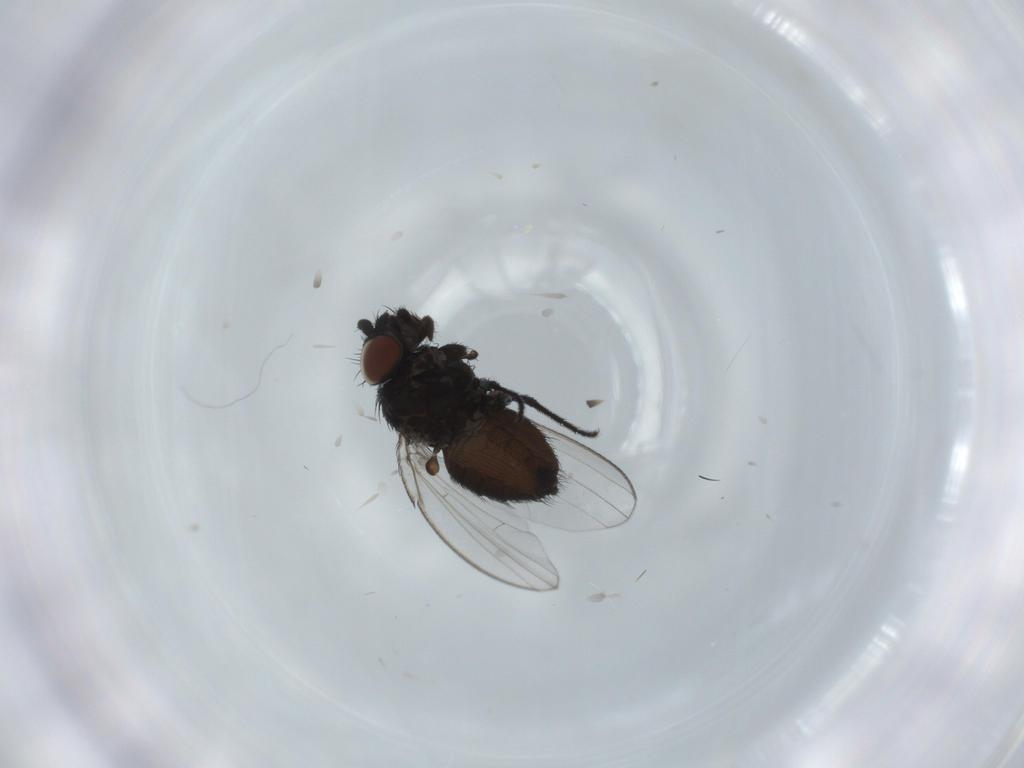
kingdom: Animalia
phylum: Arthropoda
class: Insecta
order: Diptera
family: Milichiidae
